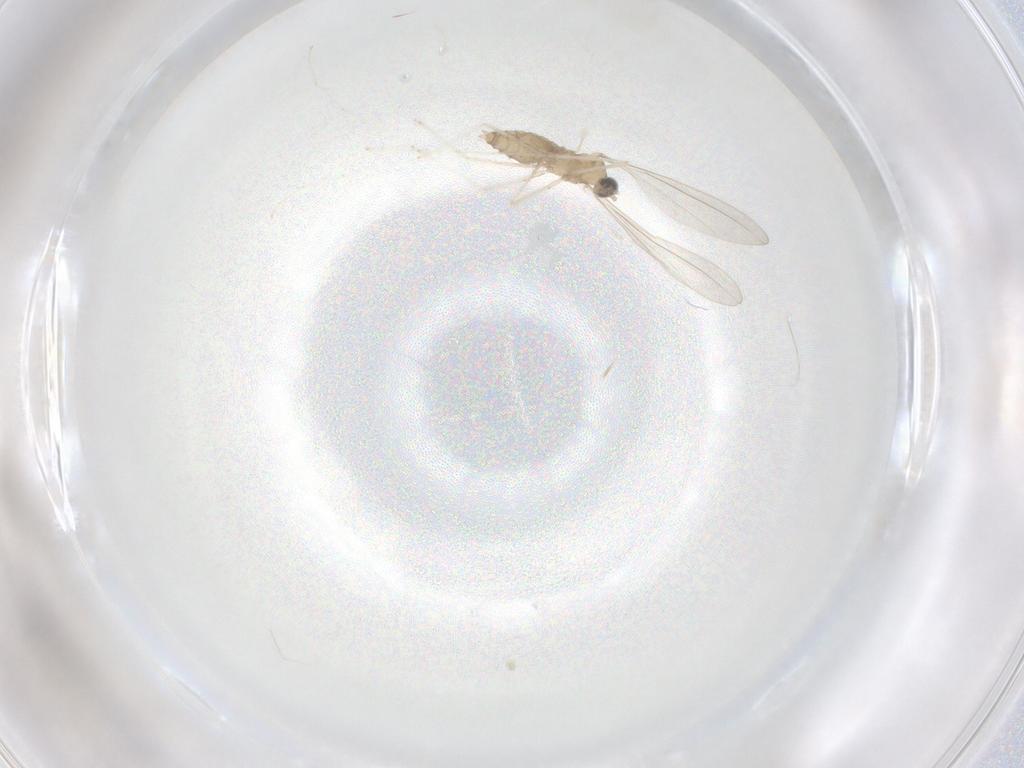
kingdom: Animalia
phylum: Arthropoda
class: Insecta
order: Diptera
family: Cecidomyiidae
